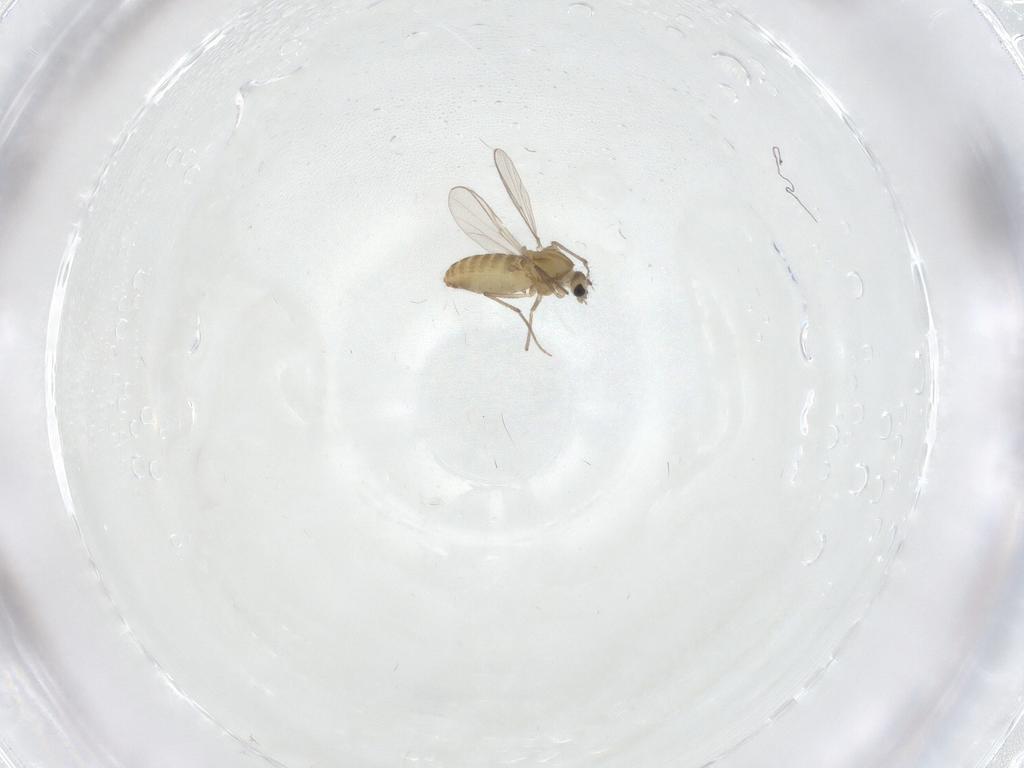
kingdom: Animalia
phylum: Arthropoda
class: Insecta
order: Diptera
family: Chironomidae
